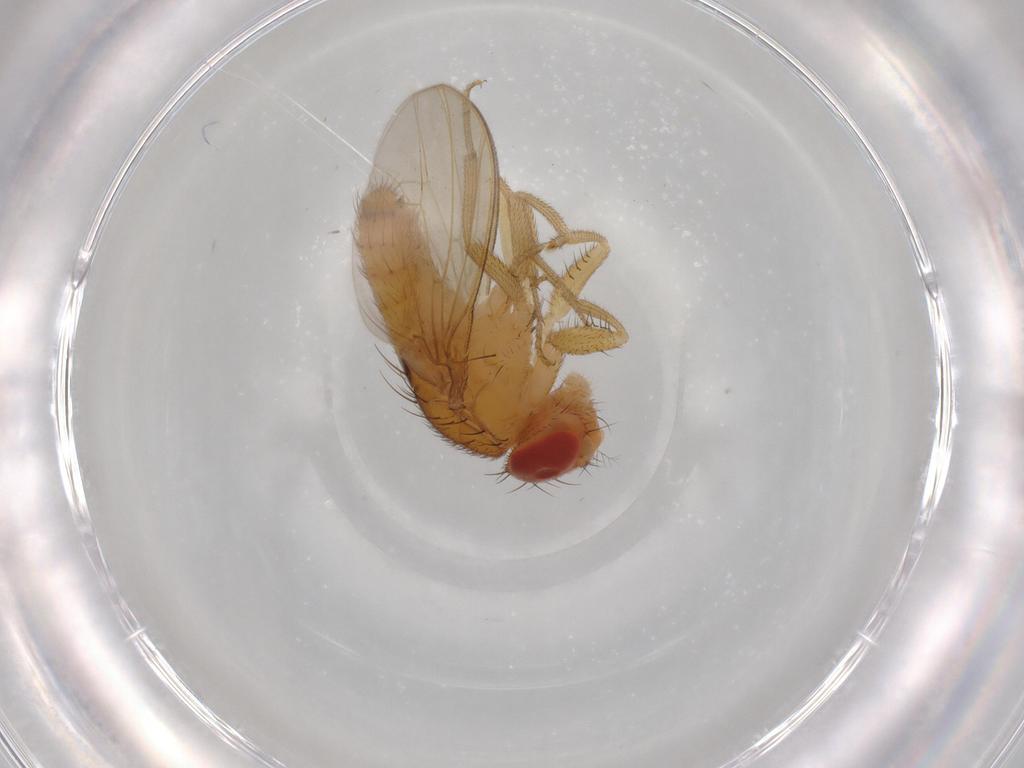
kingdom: Animalia
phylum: Arthropoda
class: Insecta
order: Diptera
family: Drosophilidae
